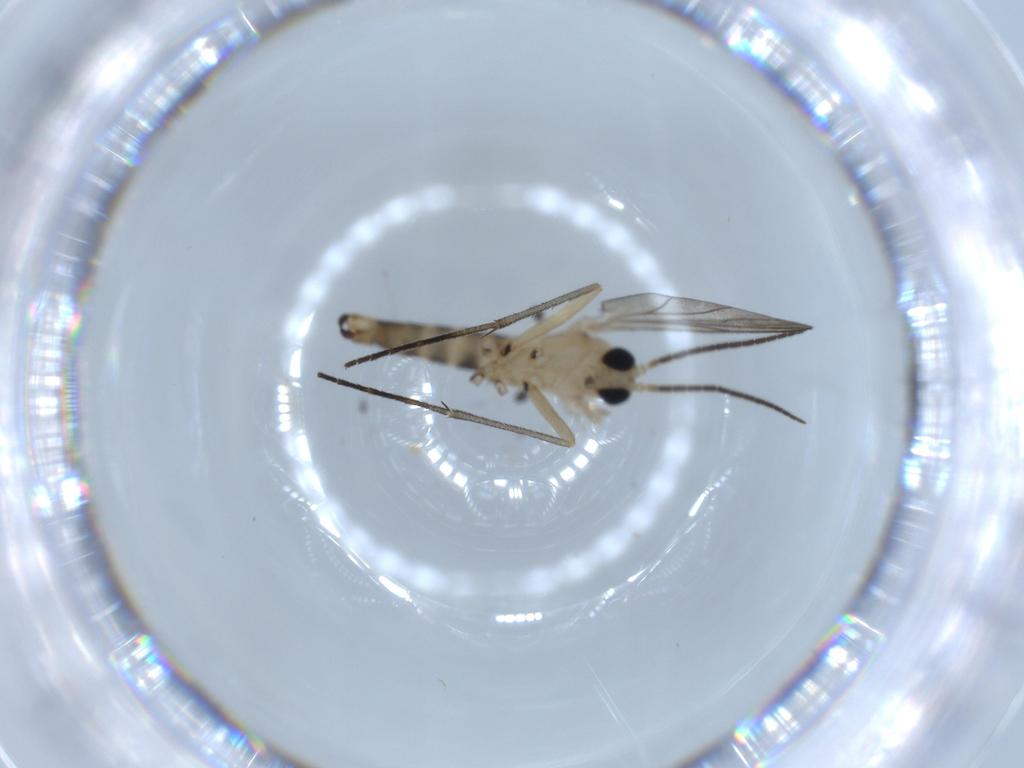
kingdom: Animalia
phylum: Arthropoda
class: Insecta
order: Diptera
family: Sciaridae
